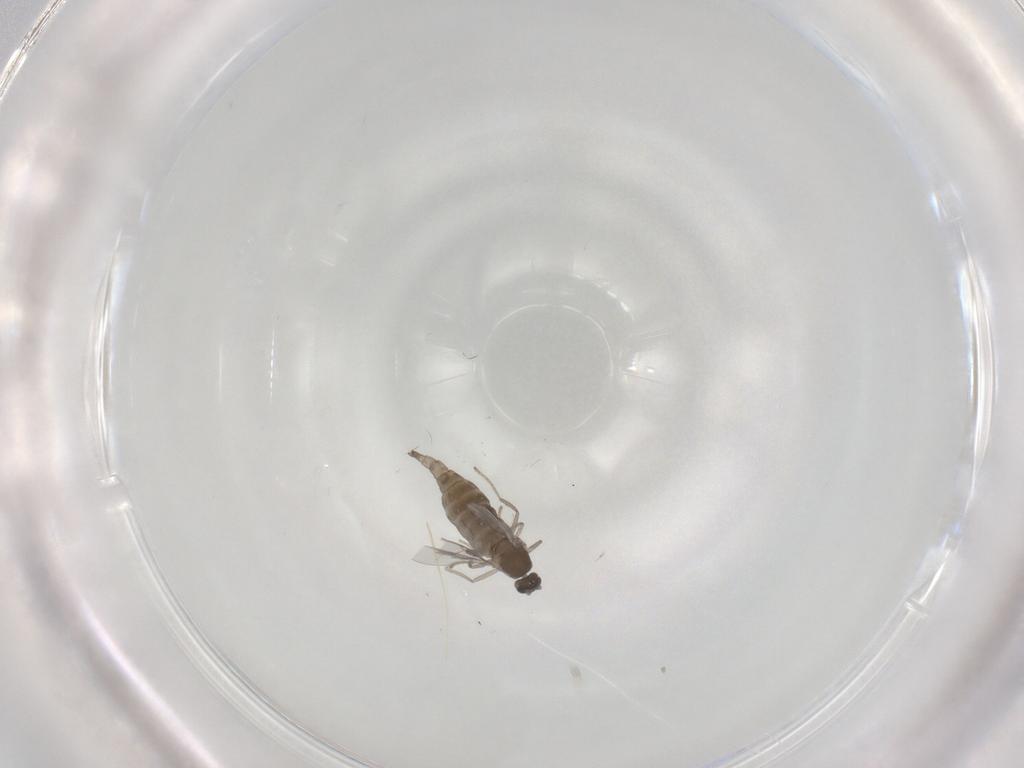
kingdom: Animalia
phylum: Arthropoda
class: Insecta
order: Diptera
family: Cecidomyiidae
